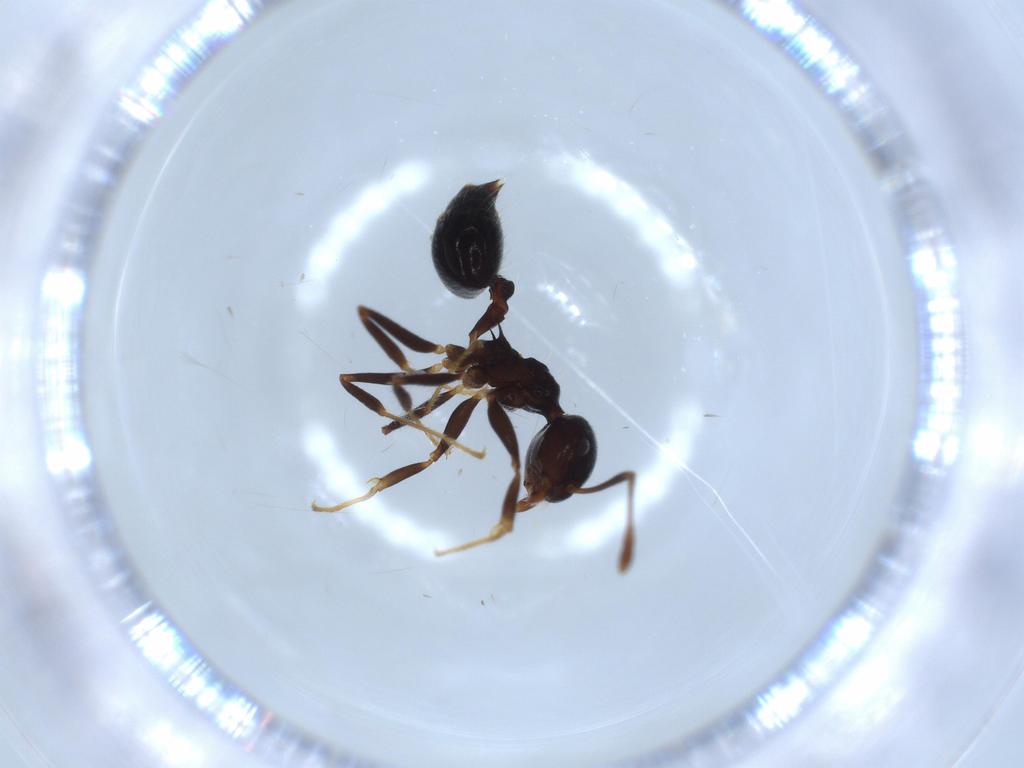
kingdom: Animalia
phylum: Arthropoda
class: Insecta
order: Hymenoptera
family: Formicidae
